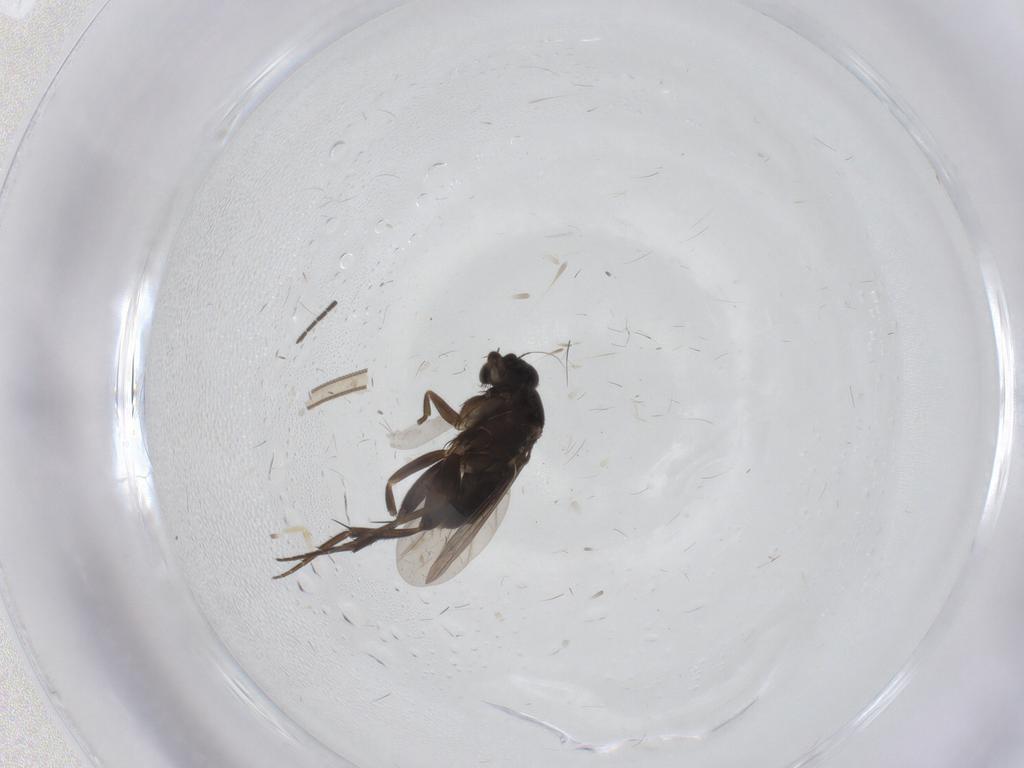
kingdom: Animalia
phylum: Arthropoda
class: Insecta
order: Diptera
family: Phoridae
